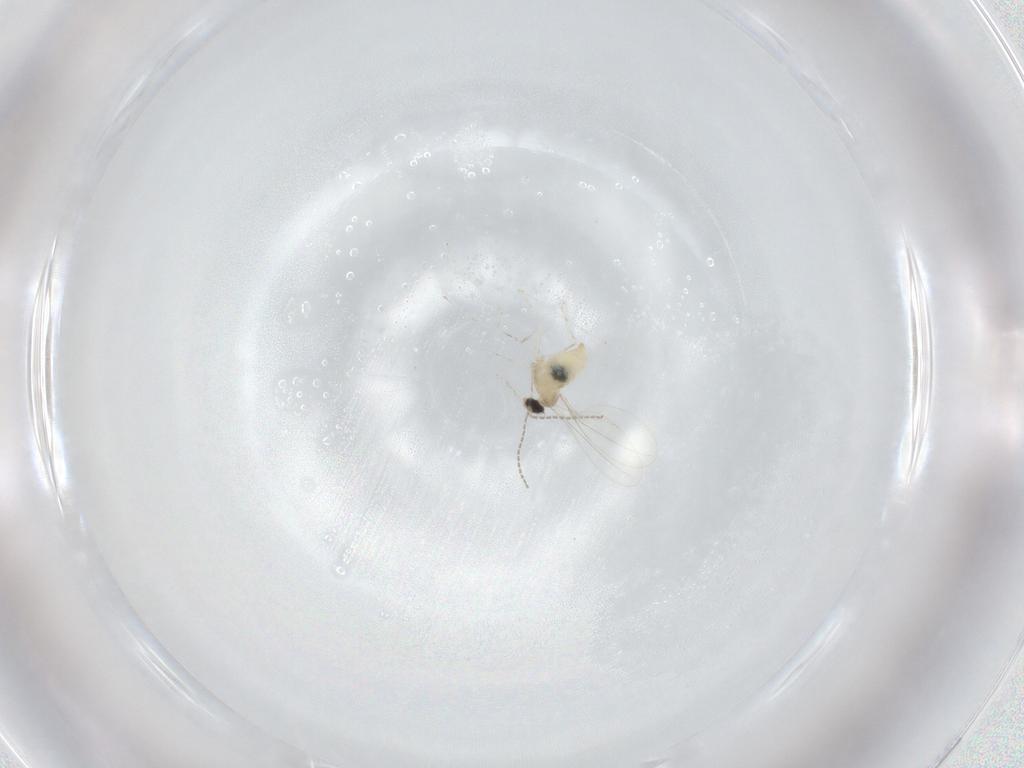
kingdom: Animalia
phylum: Arthropoda
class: Insecta
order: Diptera
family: Cecidomyiidae
